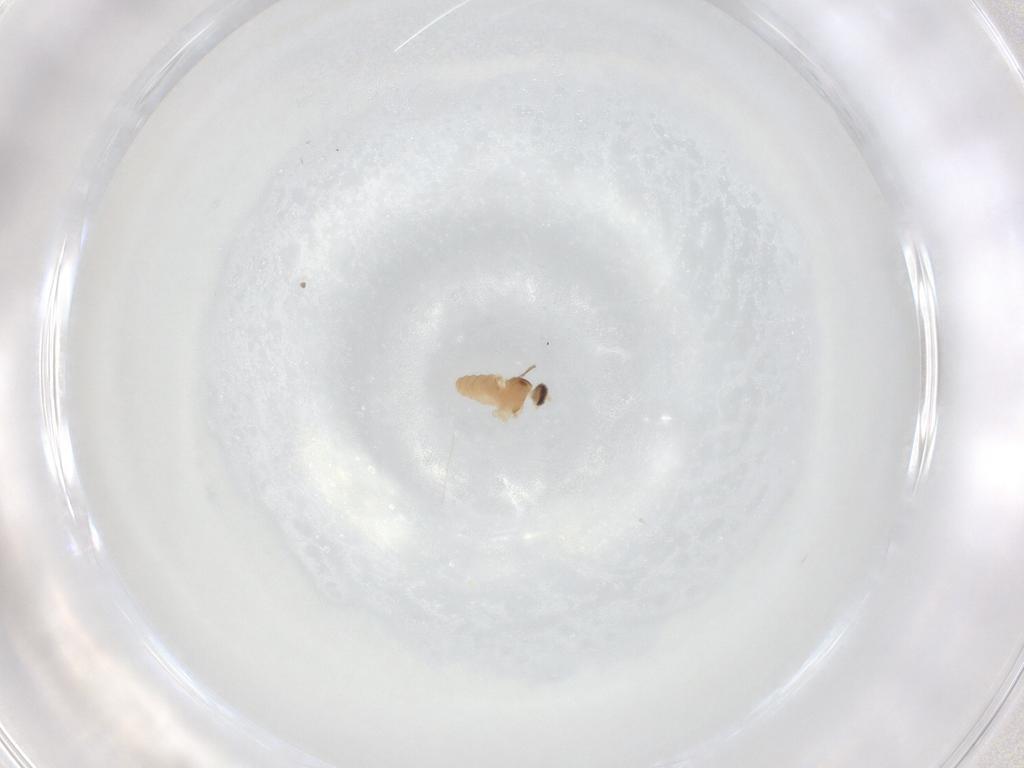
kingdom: Animalia
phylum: Arthropoda
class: Insecta
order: Diptera
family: Cecidomyiidae
